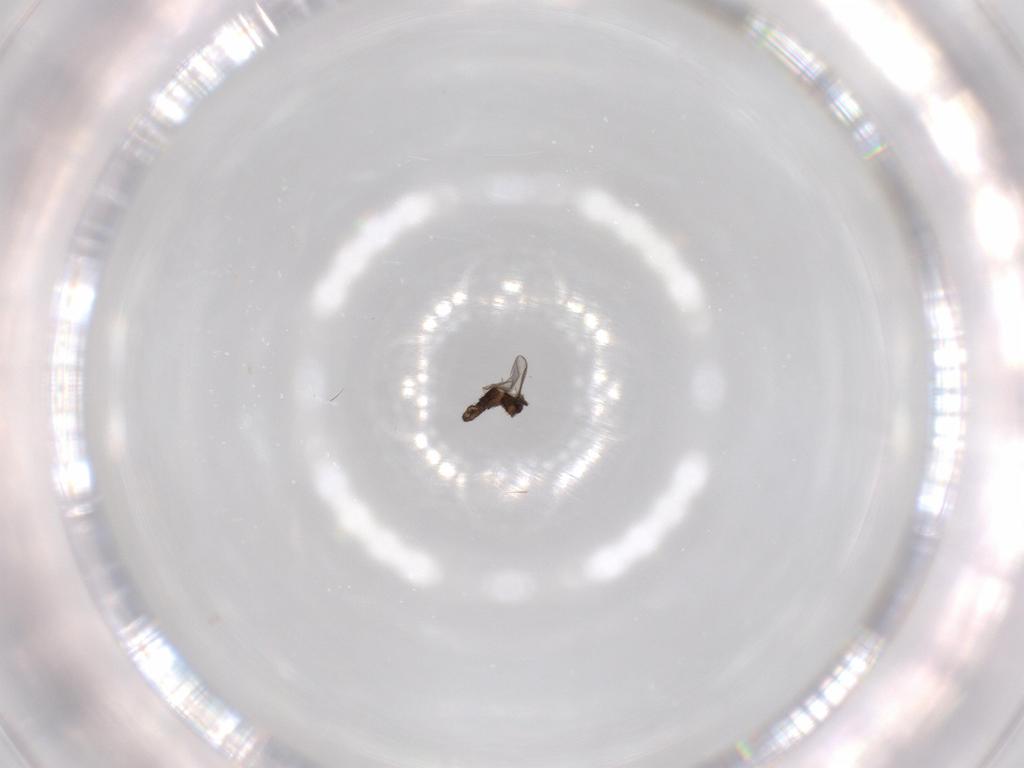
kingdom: Animalia
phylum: Arthropoda
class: Insecta
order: Diptera
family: Sciaridae
